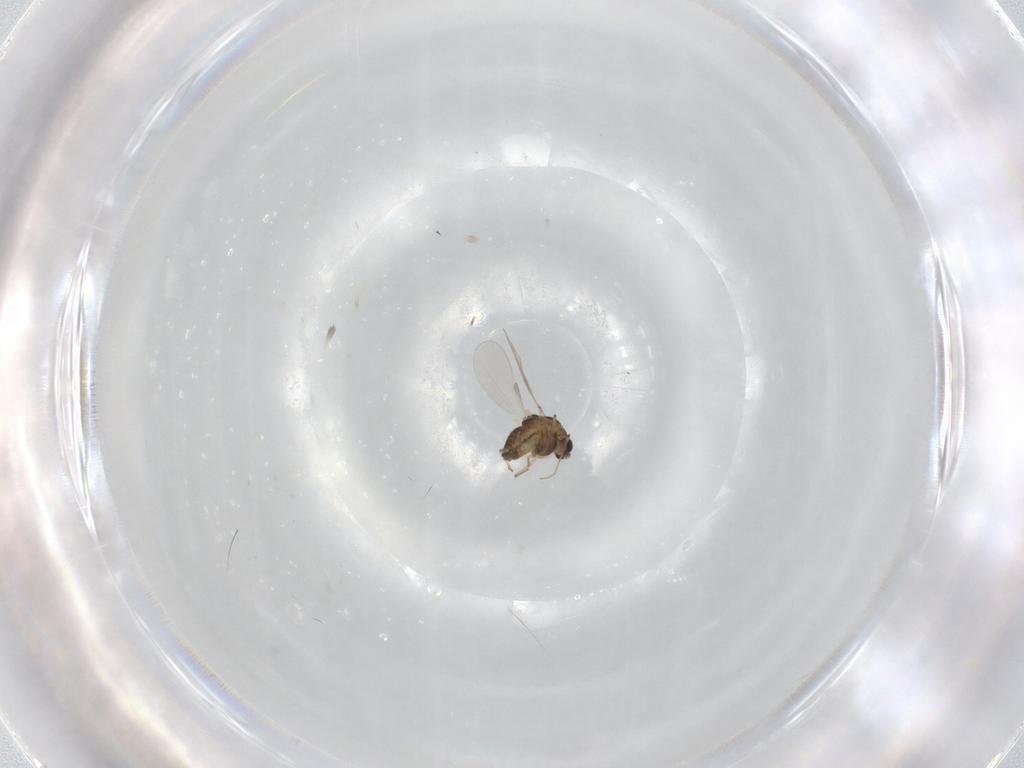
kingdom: Animalia
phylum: Arthropoda
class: Insecta
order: Diptera
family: Chironomidae
